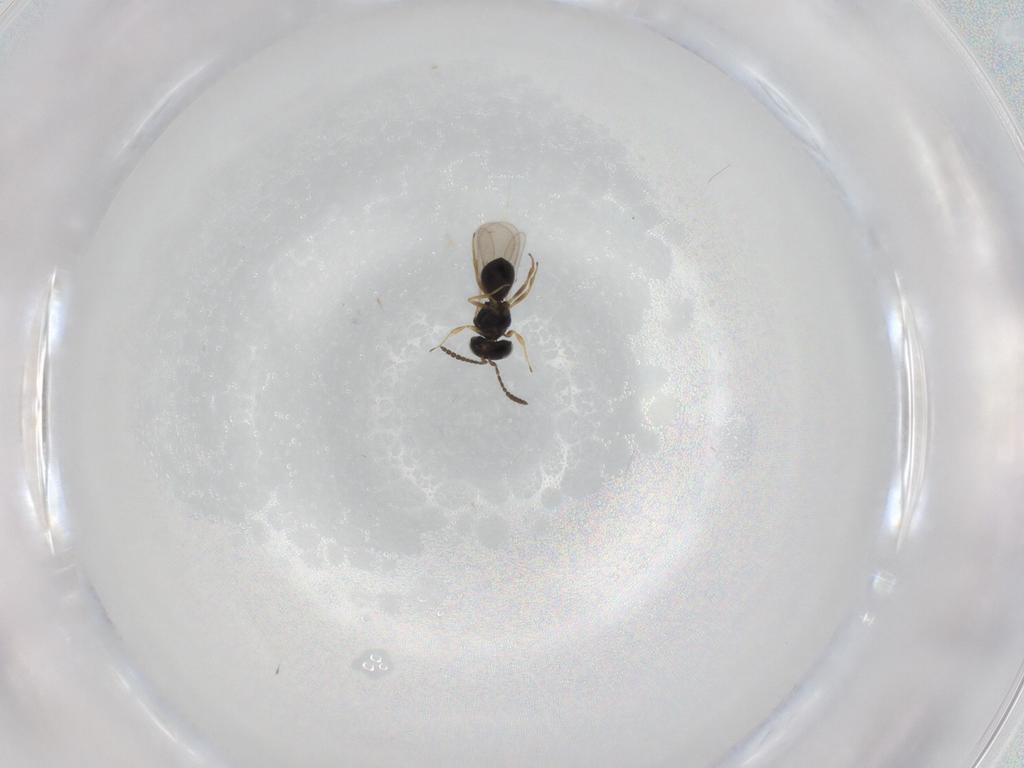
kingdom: Animalia
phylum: Arthropoda
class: Insecta
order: Hymenoptera
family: Scelionidae
